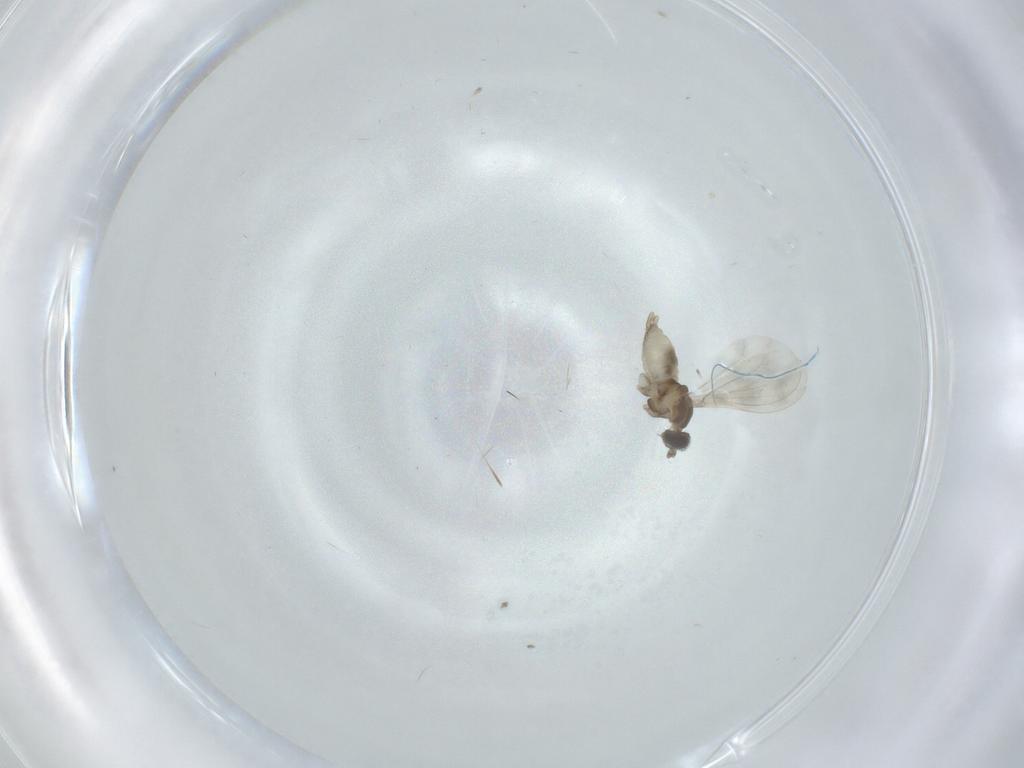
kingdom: Animalia
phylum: Arthropoda
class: Insecta
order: Diptera
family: Cecidomyiidae
